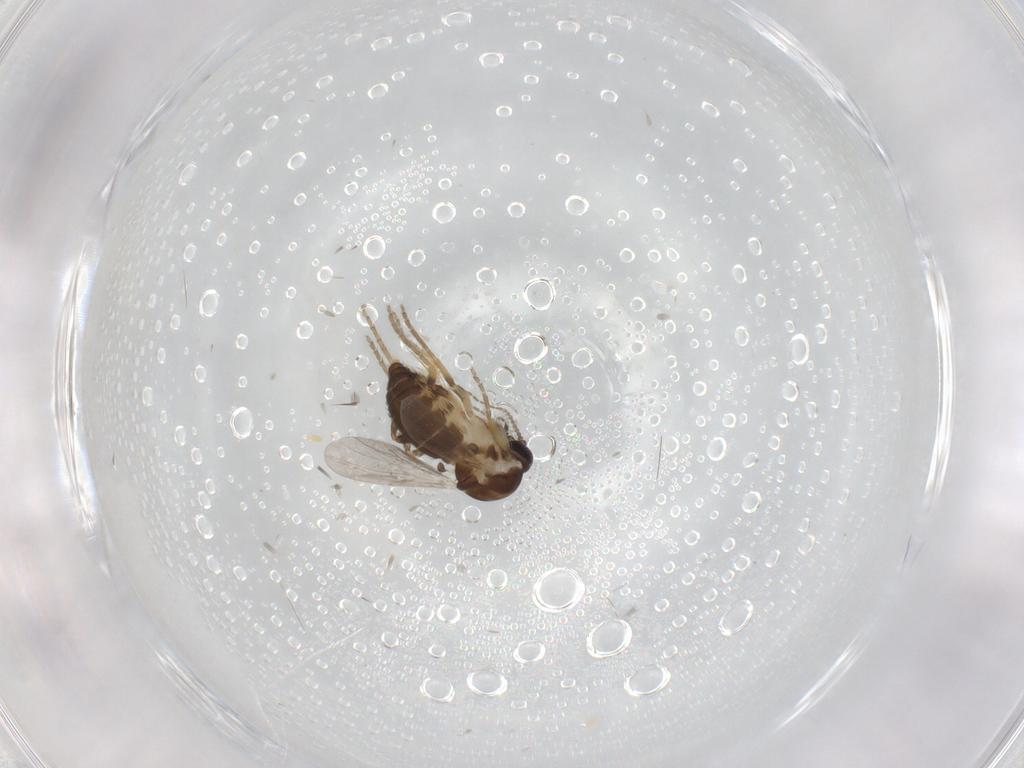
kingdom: Animalia
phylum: Arthropoda
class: Insecta
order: Diptera
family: Ceratopogonidae
